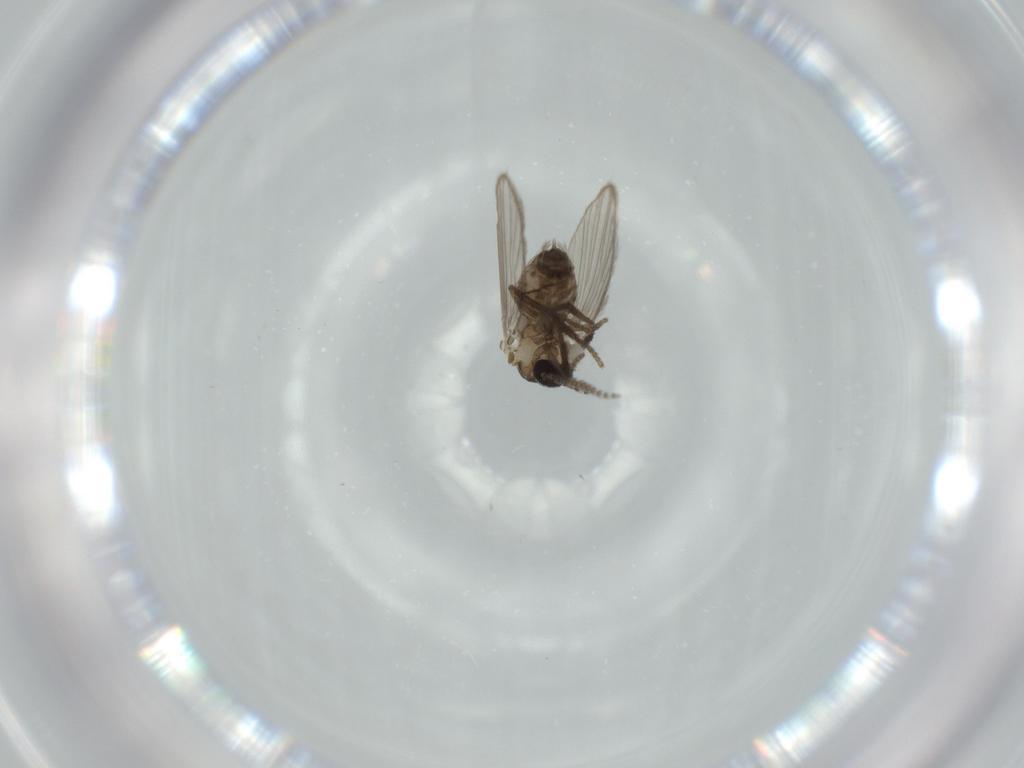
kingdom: Animalia
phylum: Arthropoda
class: Insecta
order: Diptera
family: Psychodidae
